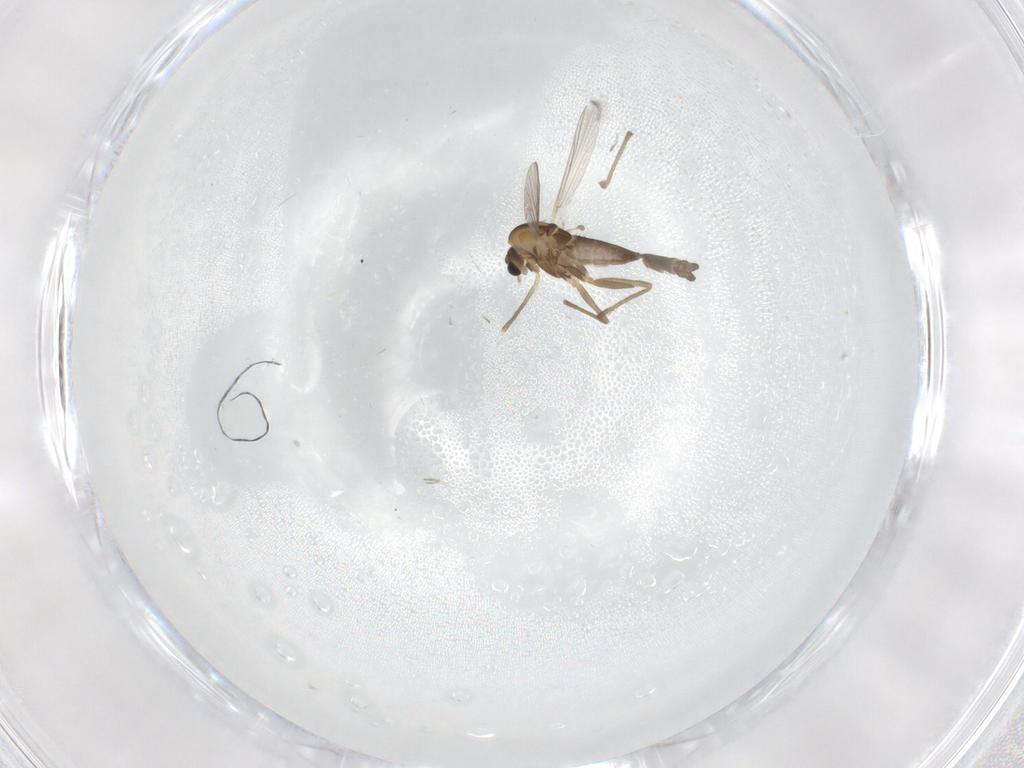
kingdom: Animalia
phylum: Arthropoda
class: Insecta
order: Diptera
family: Chironomidae
